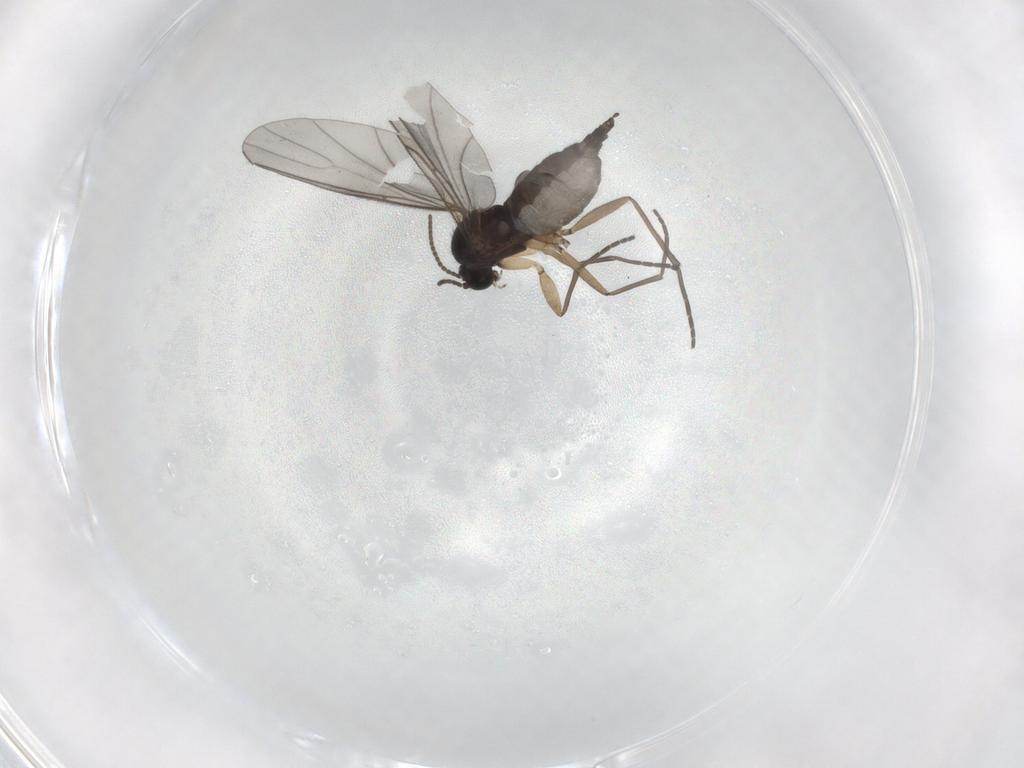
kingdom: Animalia
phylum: Arthropoda
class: Insecta
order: Diptera
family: Sciaridae
